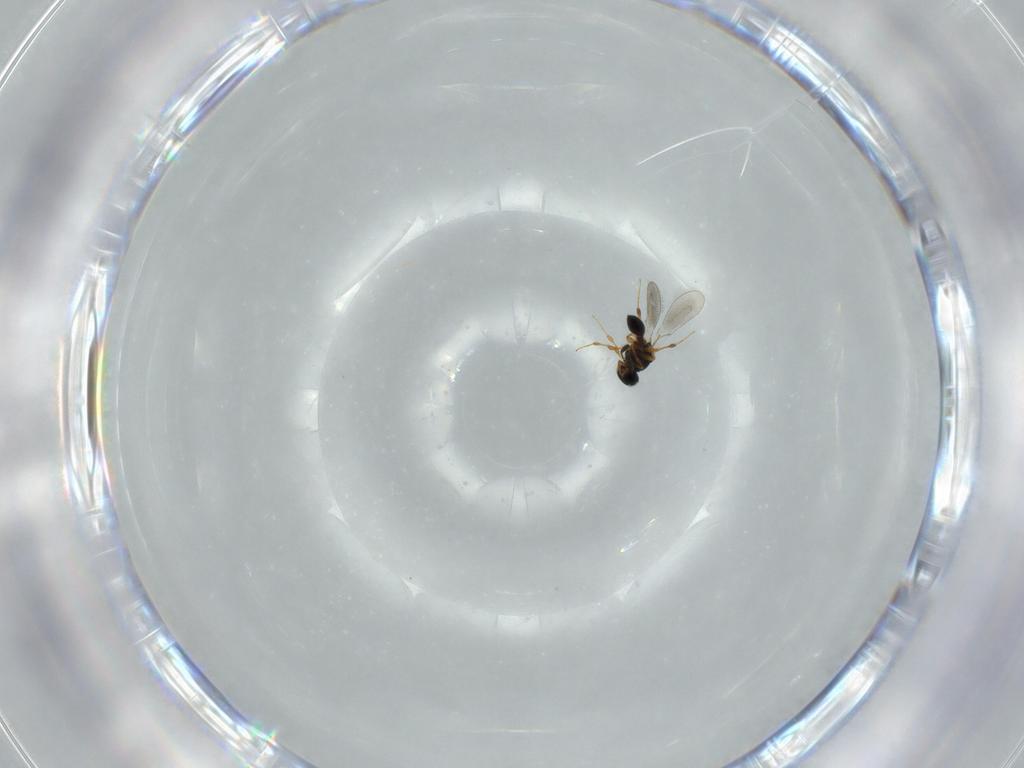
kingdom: Animalia
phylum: Arthropoda
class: Insecta
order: Hymenoptera
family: Platygastridae
